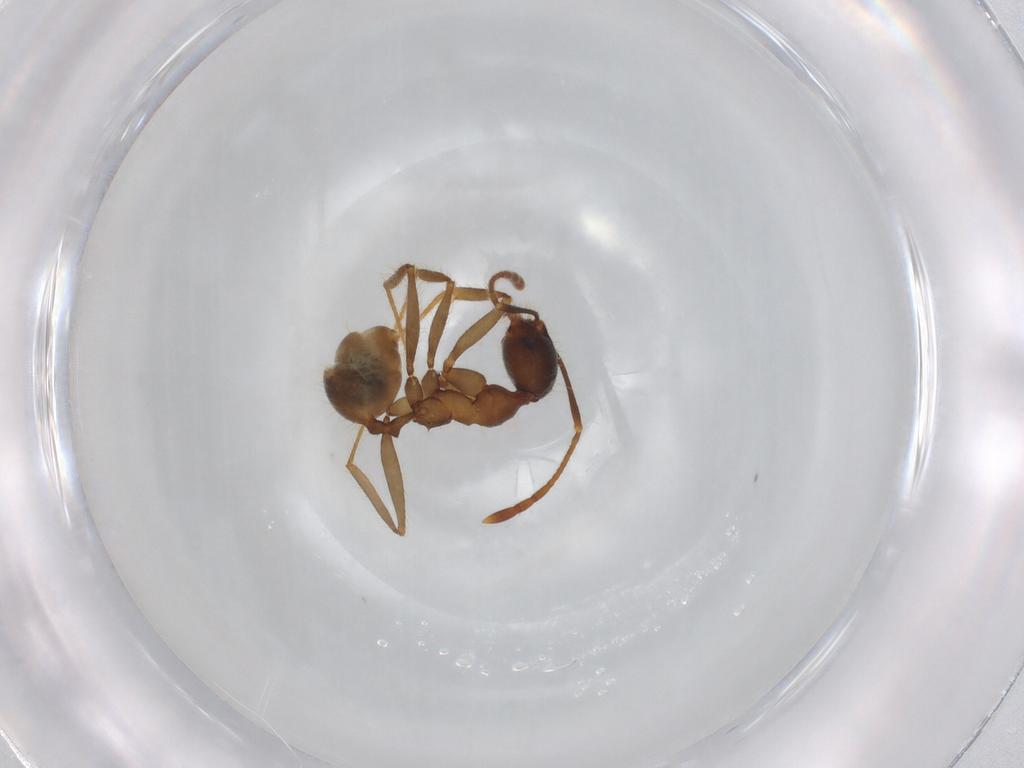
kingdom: Animalia
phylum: Arthropoda
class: Insecta
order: Hymenoptera
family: Formicidae
